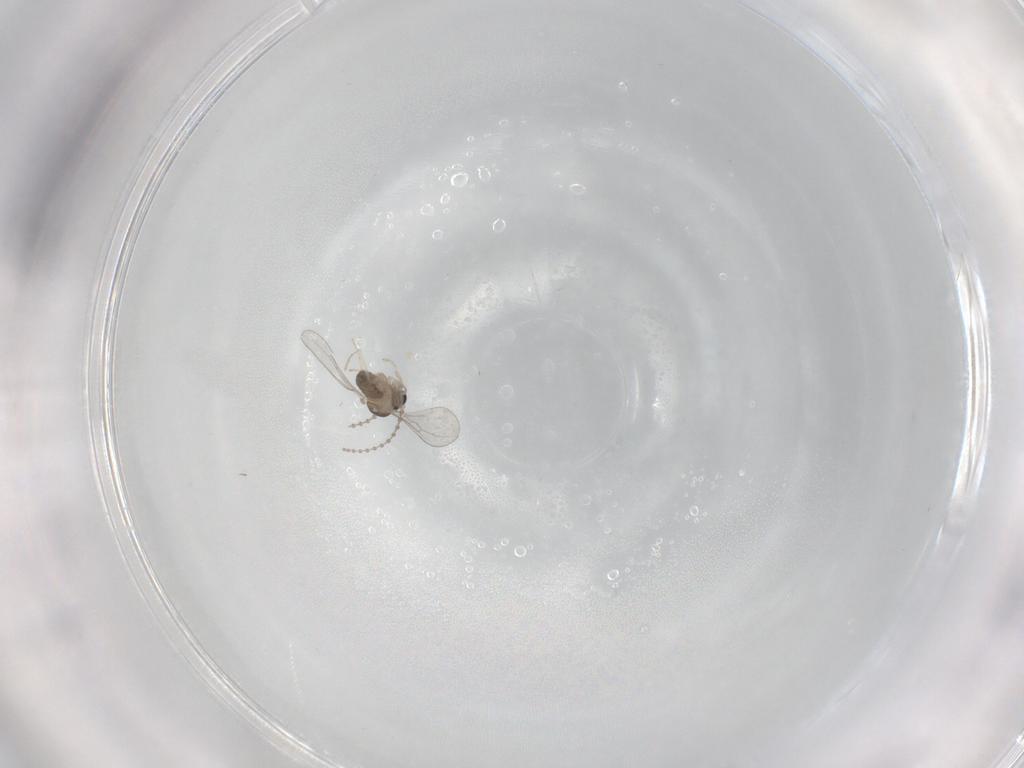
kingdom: Animalia
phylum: Arthropoda
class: Insecta
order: Diptera
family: Cecidomyiidae
